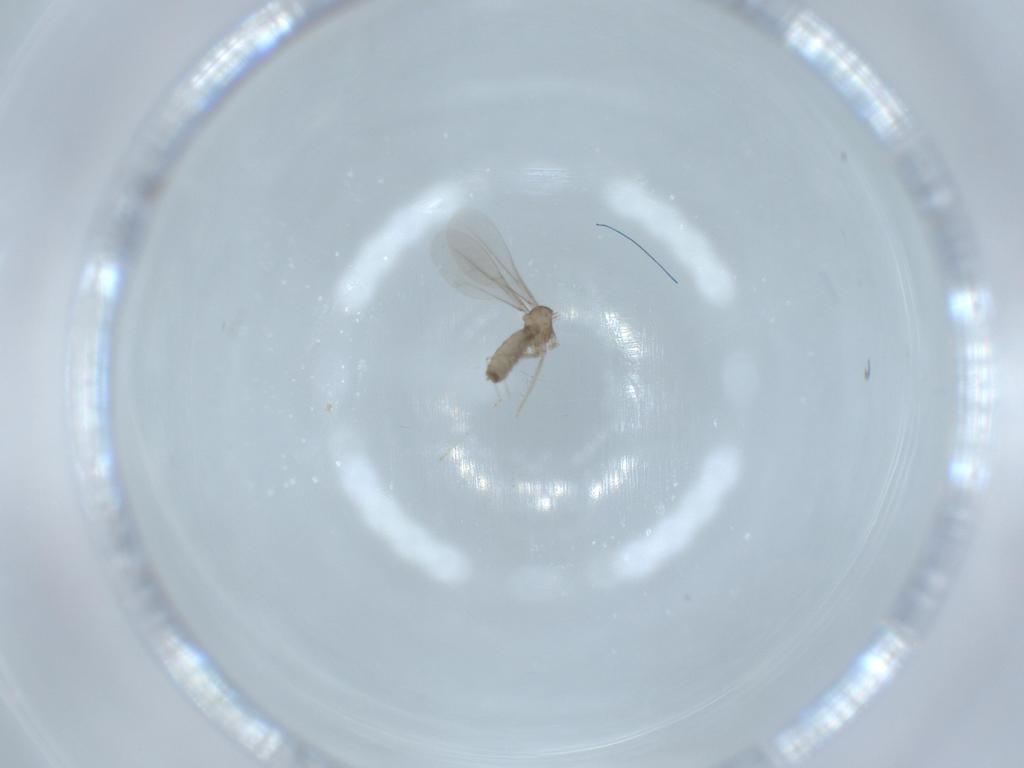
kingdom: Animalia
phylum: Arthropoda
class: Insecta
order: Diptera
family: Cecidomyiidae
